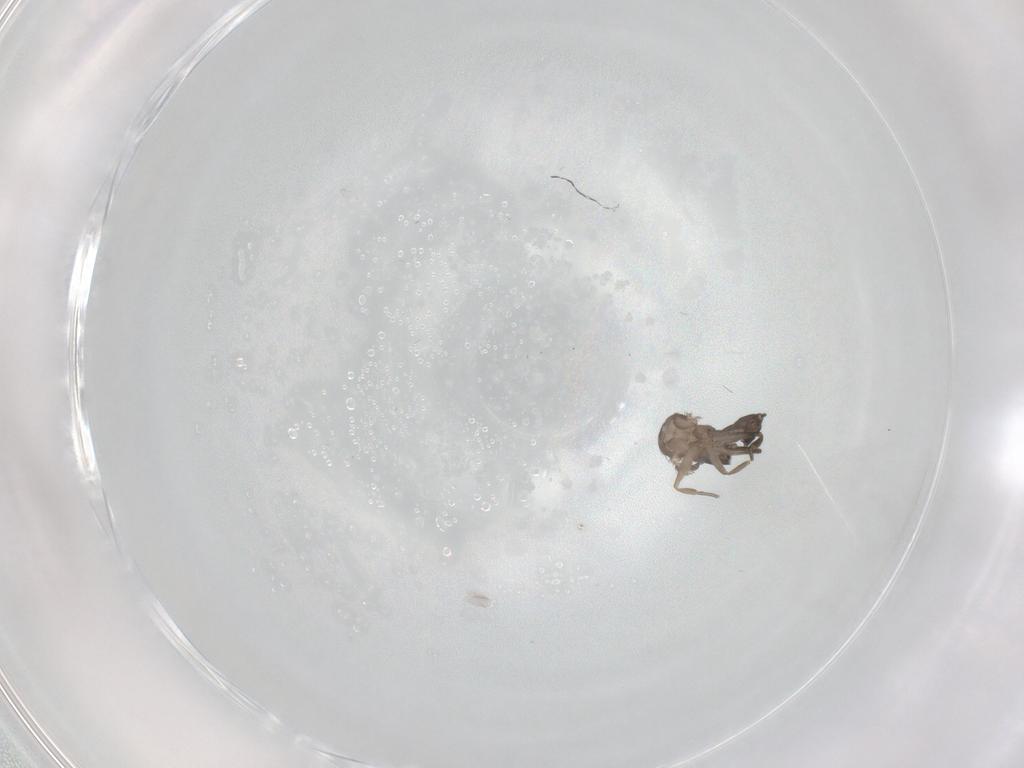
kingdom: Animalia
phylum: Arthropoda
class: Insecta
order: Diptera
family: Phoridae
